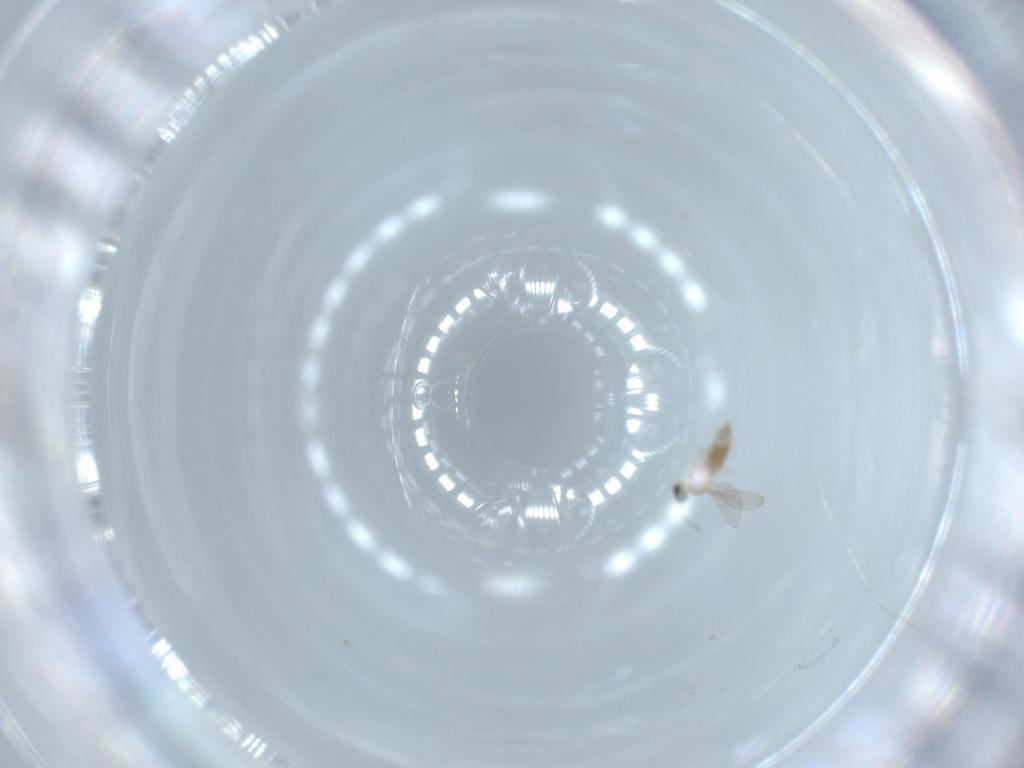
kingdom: Animalia
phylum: Arthropoda
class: Insecta
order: Diptera
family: Sciaridae
